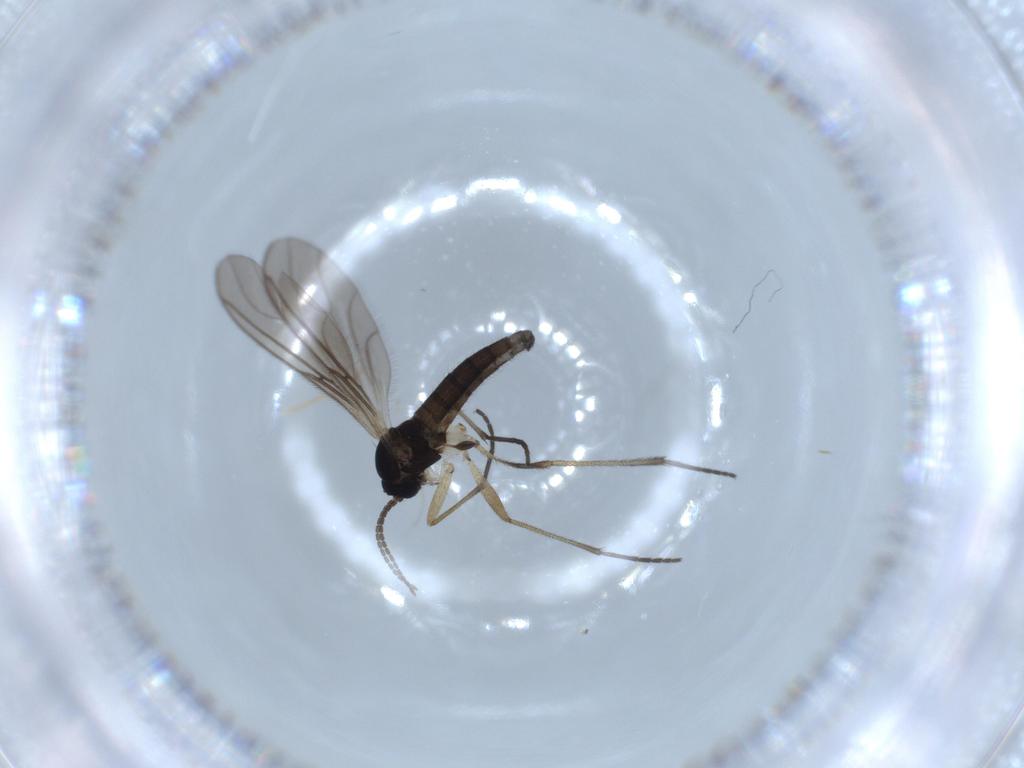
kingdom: Animalia
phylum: Arthropoda
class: Insecta
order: Diptera
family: Sciaridae
